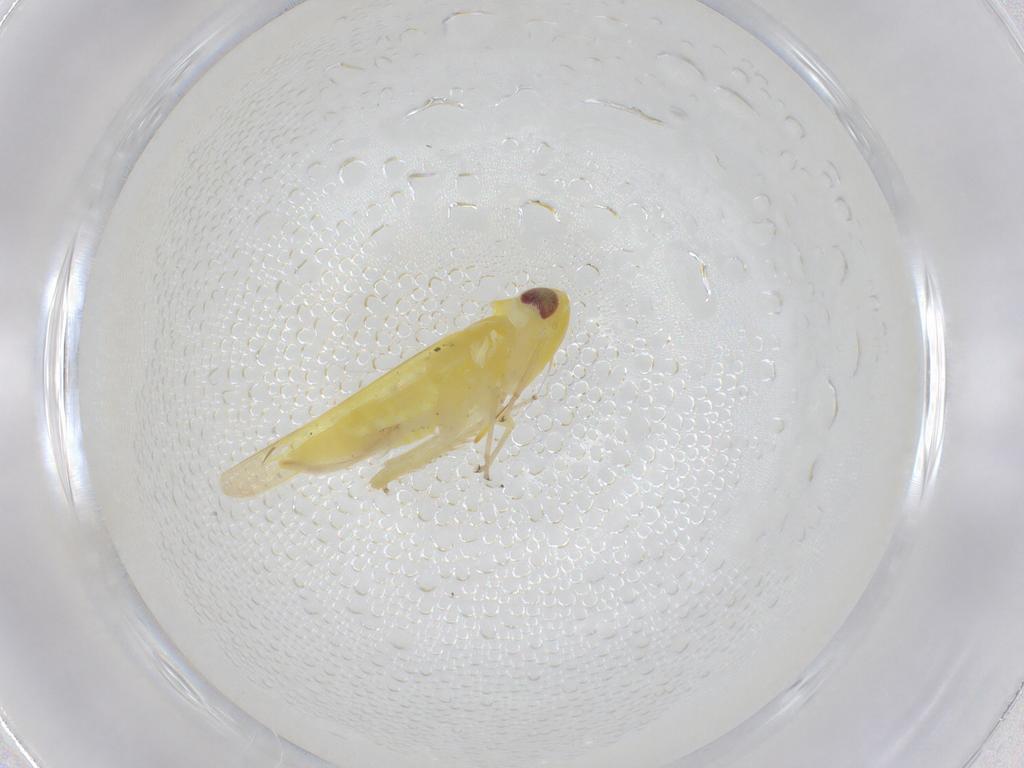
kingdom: Animalia
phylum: Arthropoda
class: Insecta
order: Hemiptera
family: Cicadellidae
